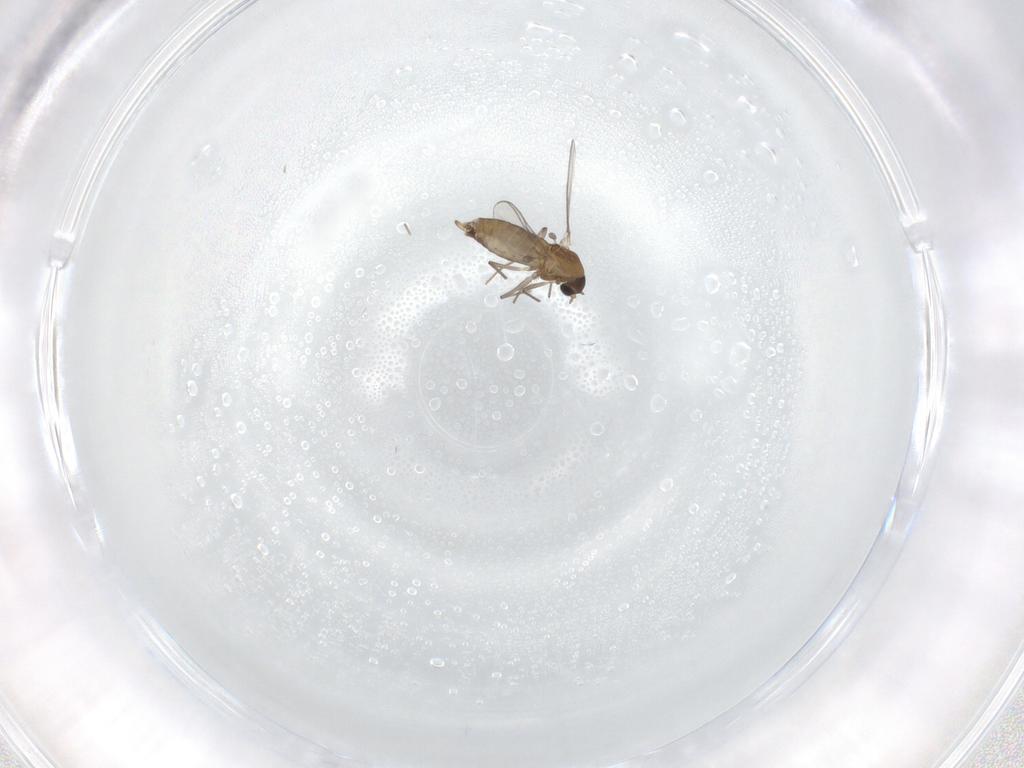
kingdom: Animalia
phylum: Arthropoda
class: Insecta
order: Diptera
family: Chironomidae
